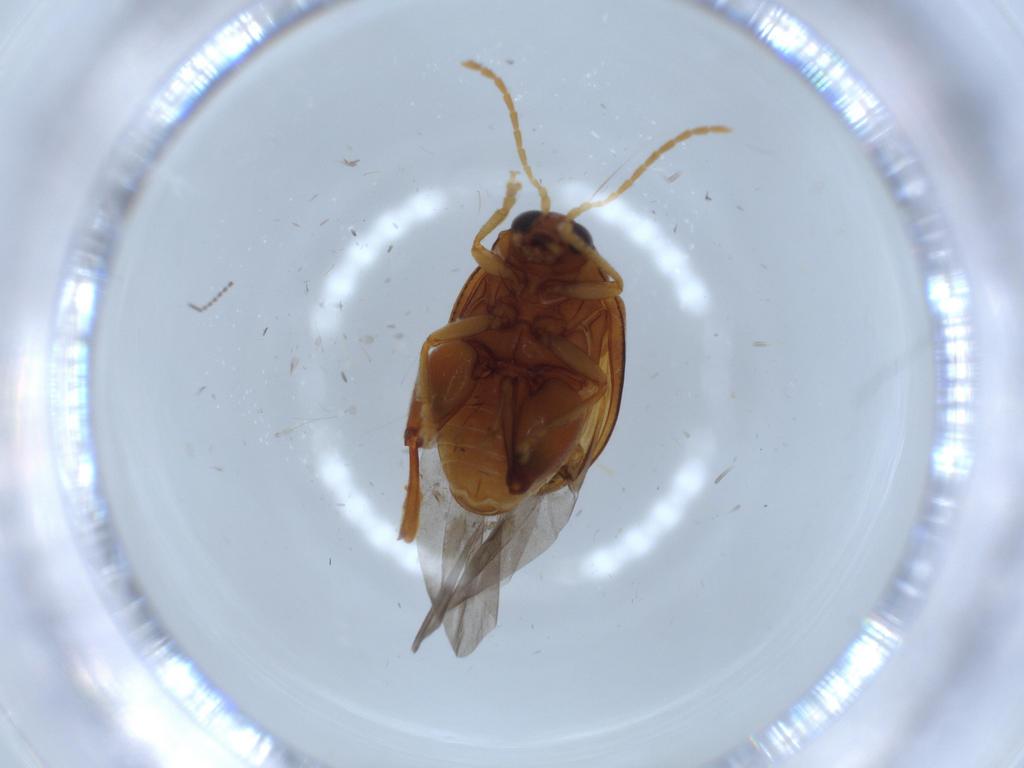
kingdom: Animalia
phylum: Arthropoda
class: Insecta
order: Coleoptera
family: Chrysomelidae
